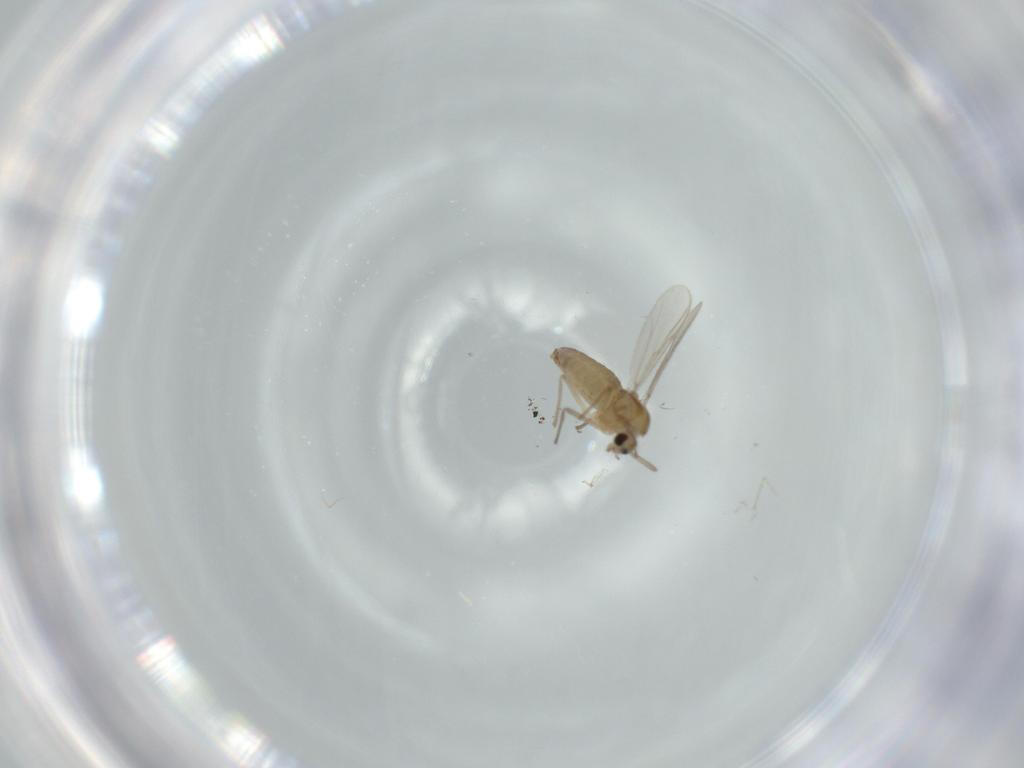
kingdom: Animalia
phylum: Arthropoda
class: Insecta
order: Diptera
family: Chironomidae
